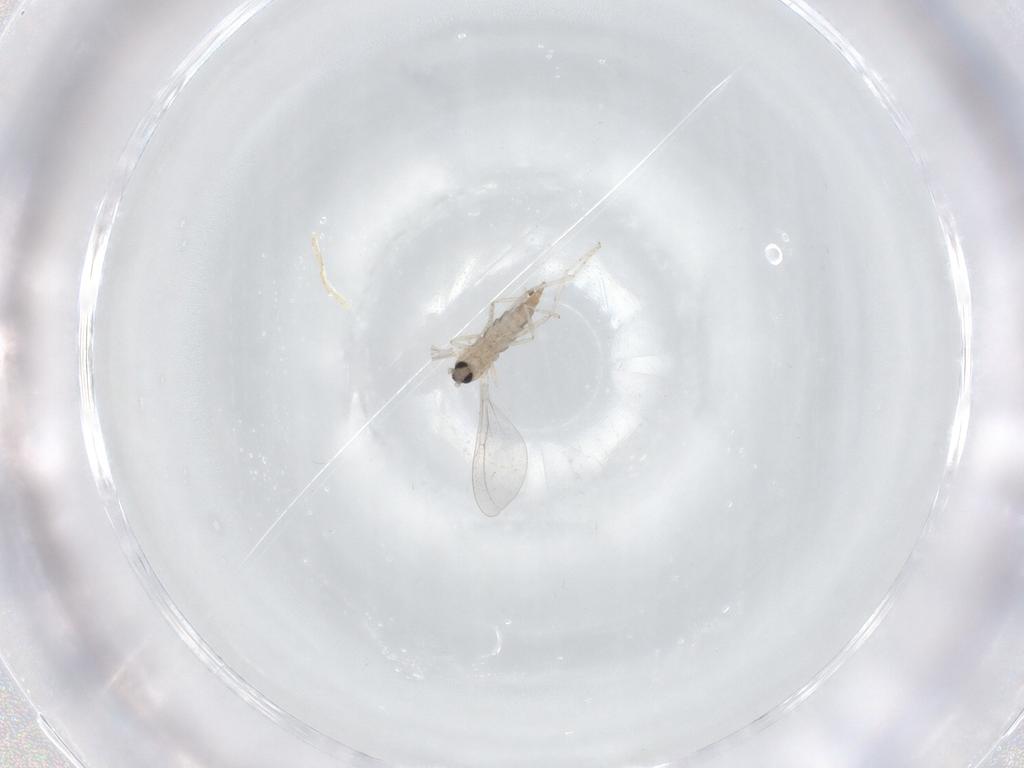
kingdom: Animalia
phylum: Arthropoda
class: Insecta
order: Diptera
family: Cecidomyiidae
